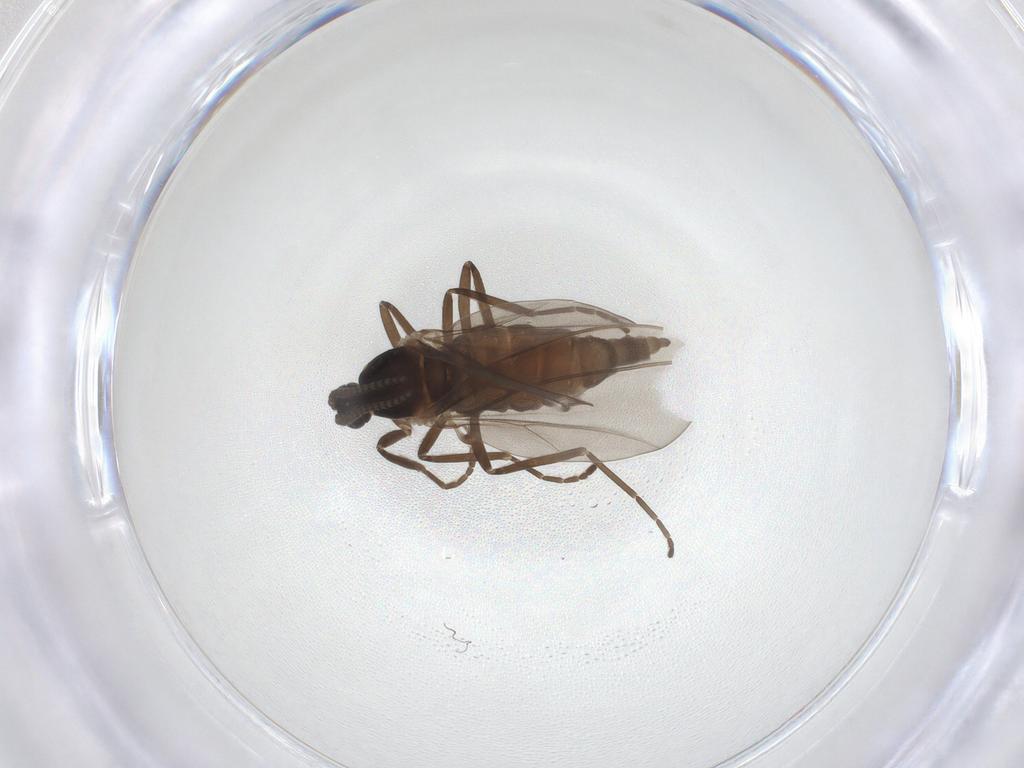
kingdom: Animalia
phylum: Arthropoda
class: Insecta
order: Diptera
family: Cecidomyiidae
